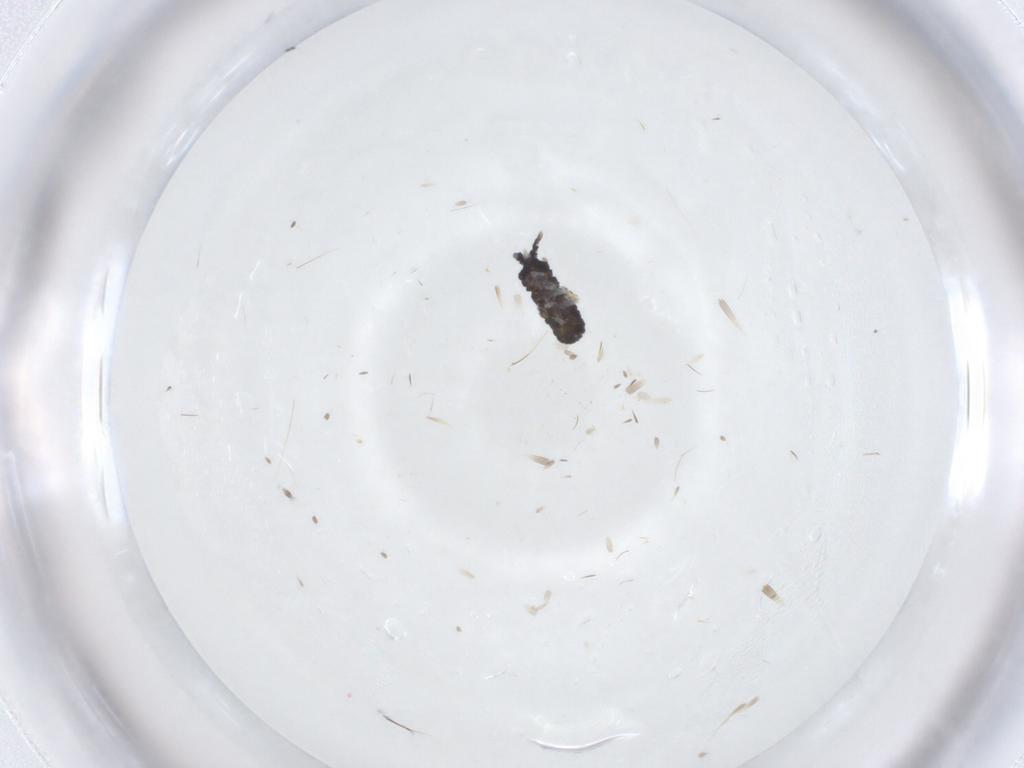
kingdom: Animalia
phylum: Arthropoda
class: Collembola
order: Poduromorpha
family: Neanuridae
